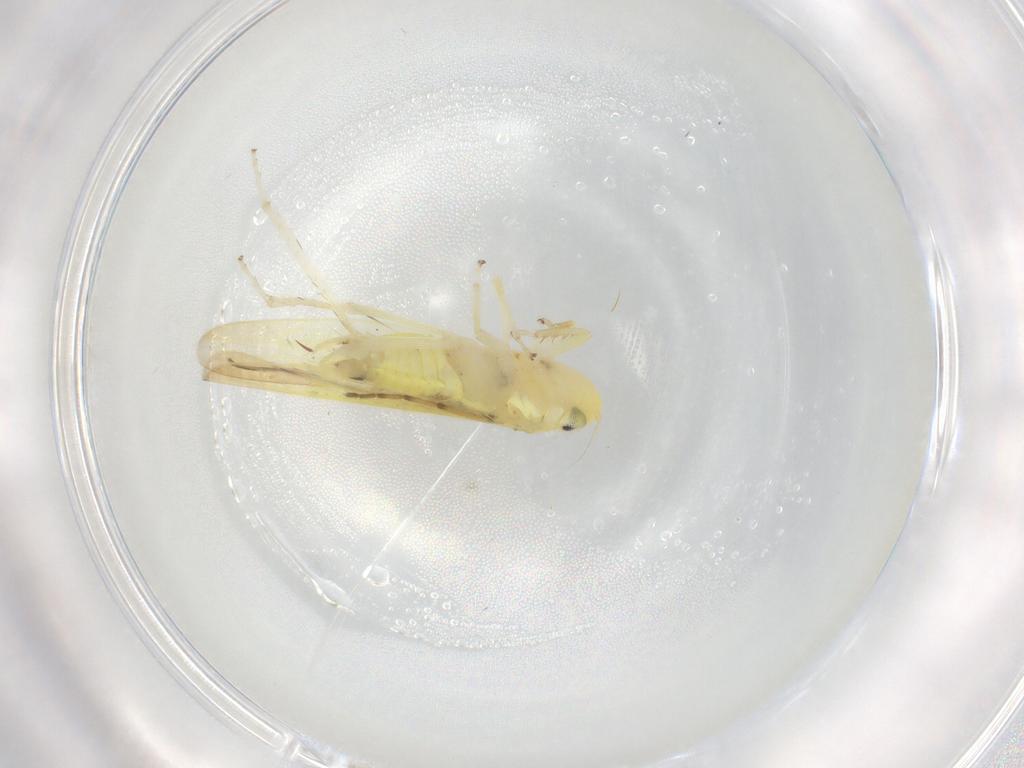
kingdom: Animalia
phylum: Arthropoda
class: Insecta
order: Hemiptera
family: Cicadellidae
